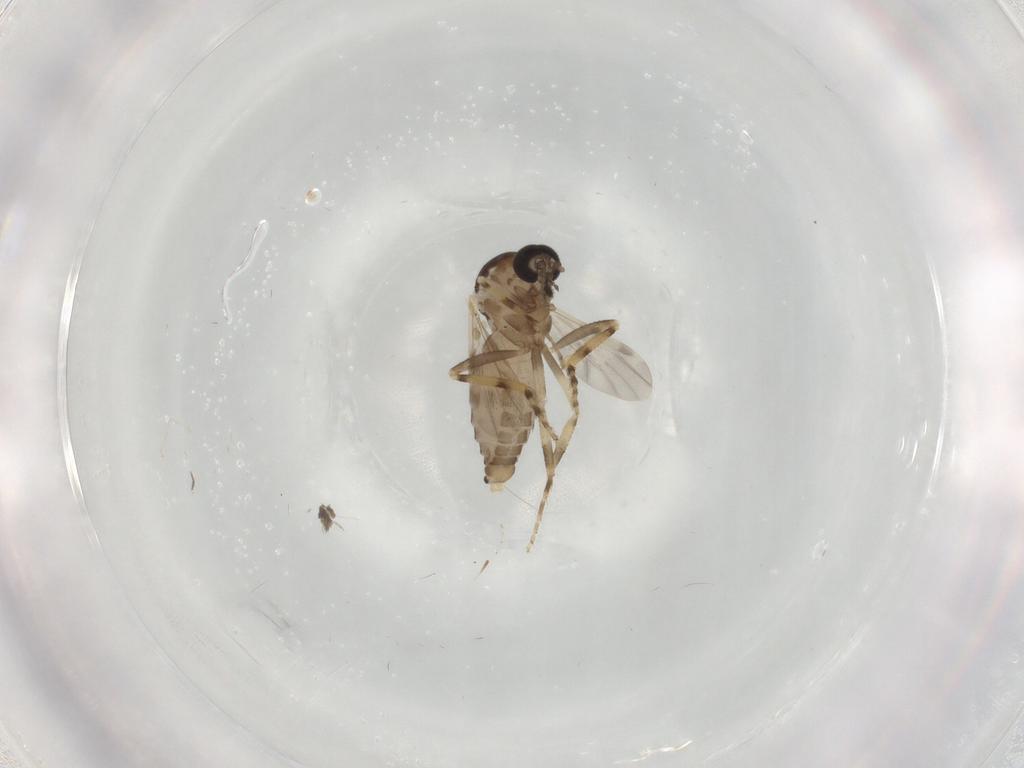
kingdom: Animalia
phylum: Arthropoda
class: Insecta
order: Diptera
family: Ceratopogonidae
